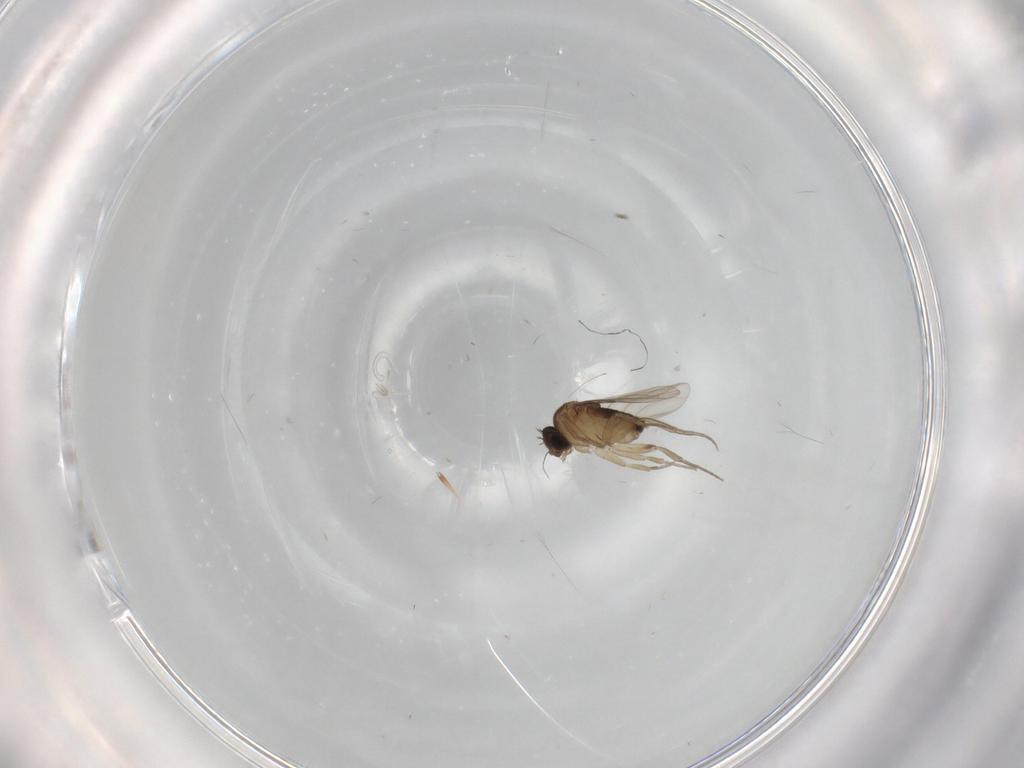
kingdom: Animalia
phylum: Arthropoda
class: Insecta
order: Diptera
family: Phoridae
